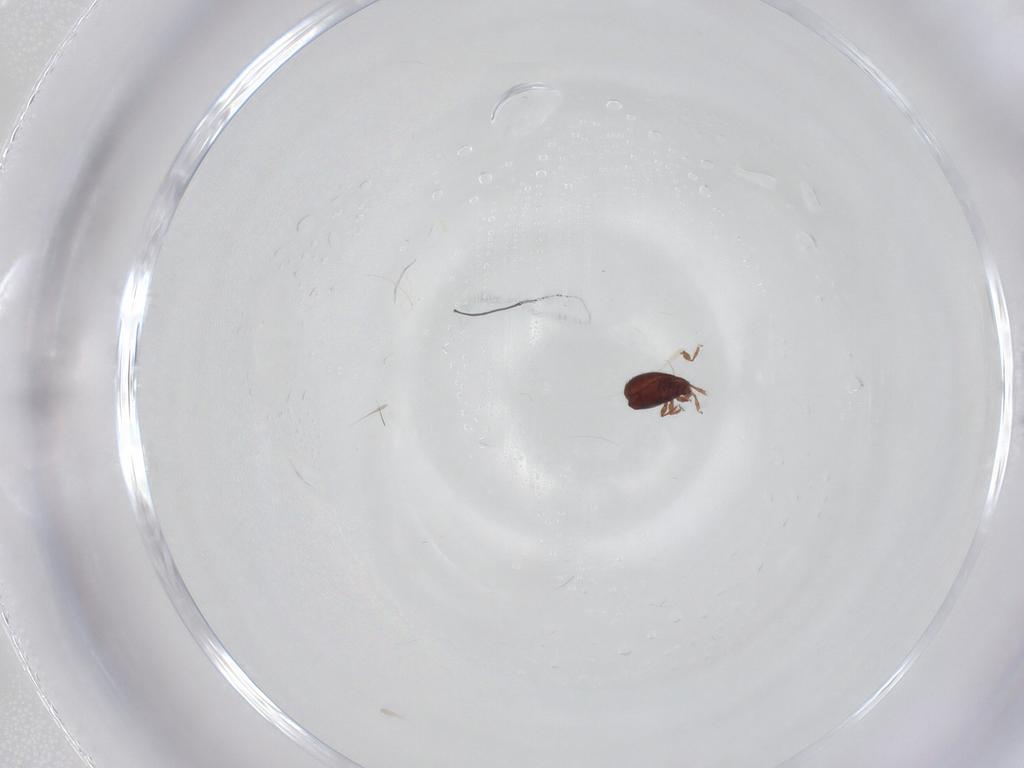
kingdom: Animalia
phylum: Arthropoda
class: Arachnida
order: Sarcoptiformes
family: Achipteriidae
